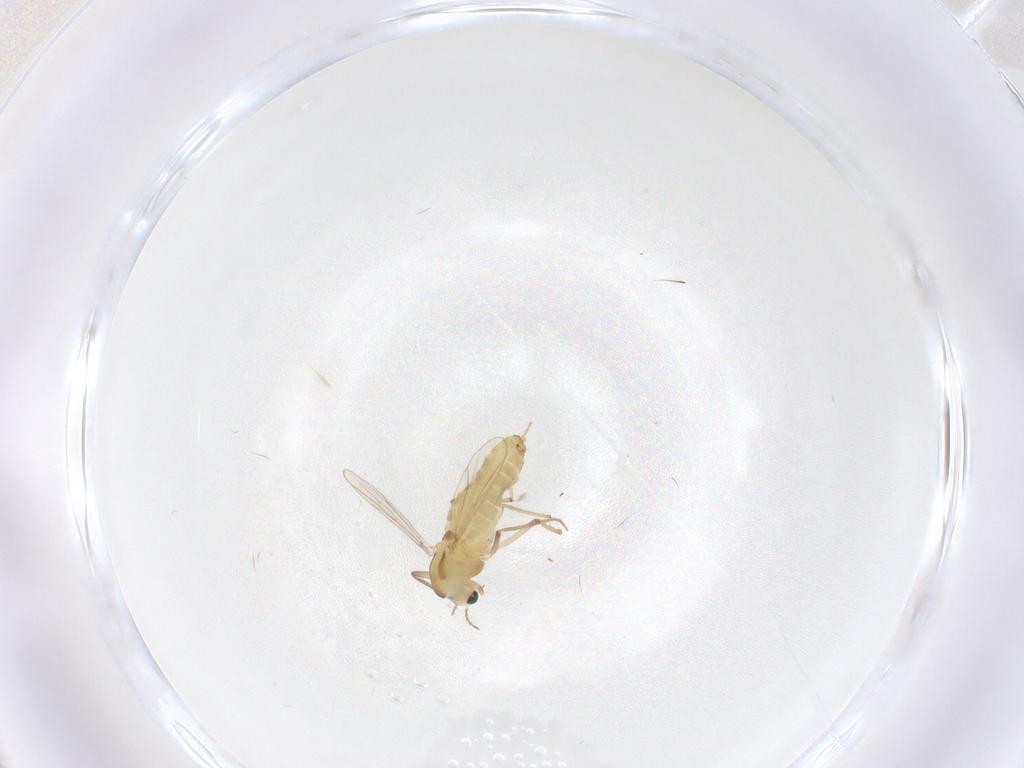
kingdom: Animalia
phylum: Arthropoda
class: Insecta
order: Diptera
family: Chironomidae
